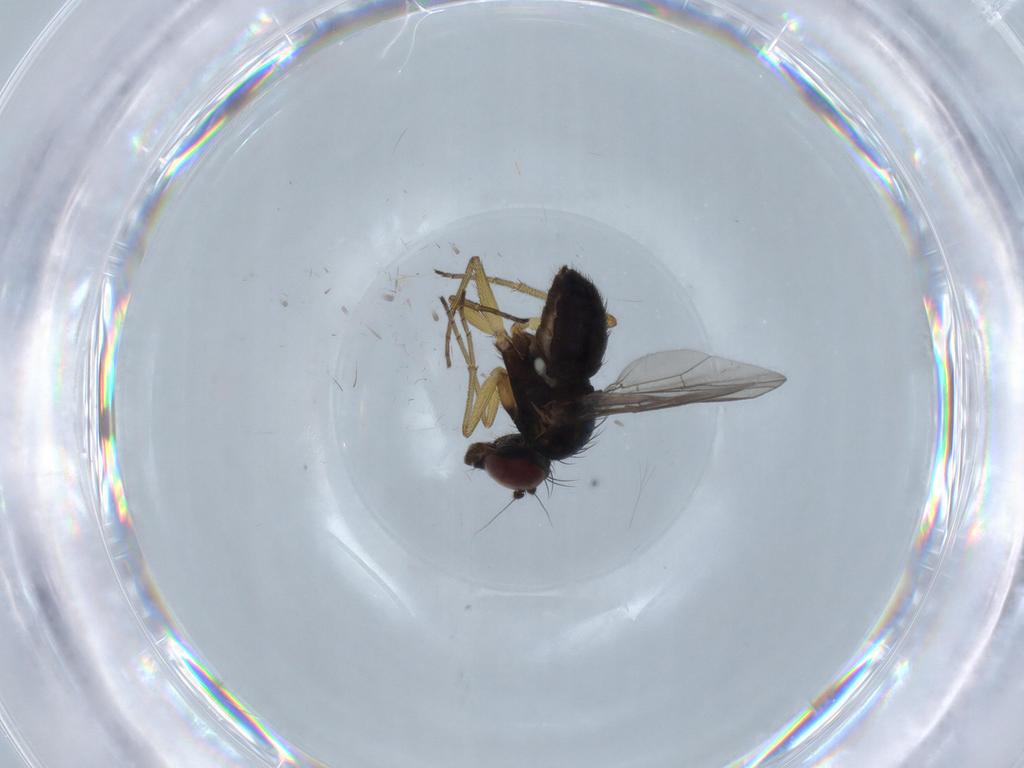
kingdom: Animalia
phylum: Arthropoda
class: Insecta
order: Diptera
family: Dolichopodidae
